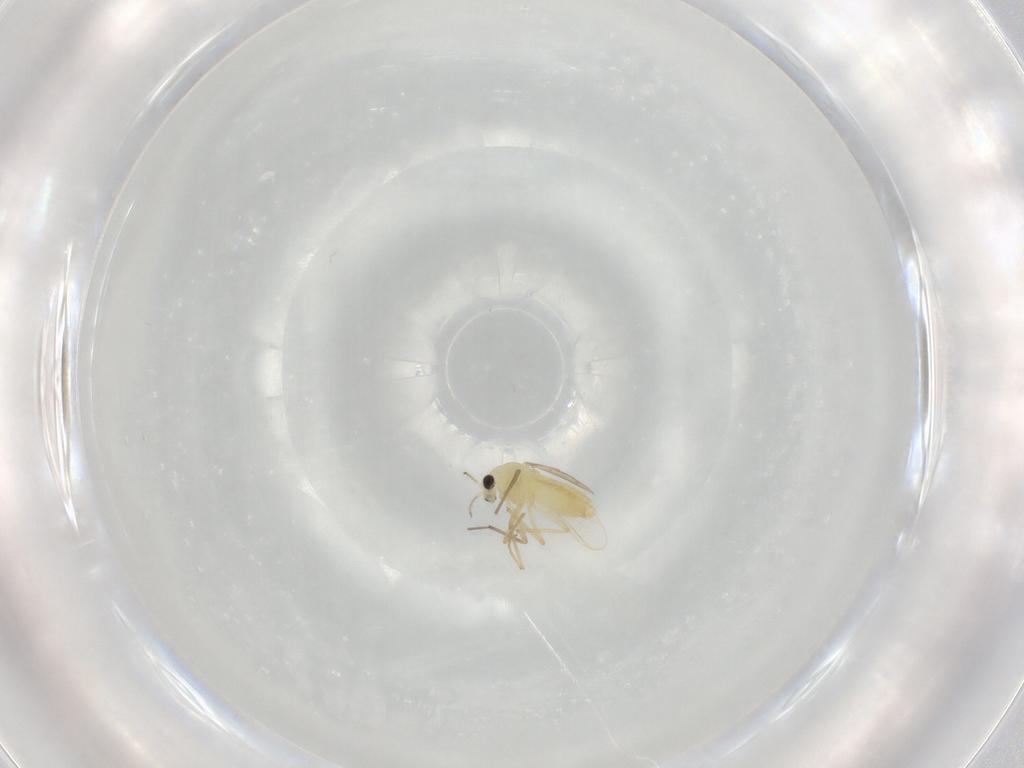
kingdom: Animalia
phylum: Arthropoda
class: Insecta
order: Diptera
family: Chironomidae
